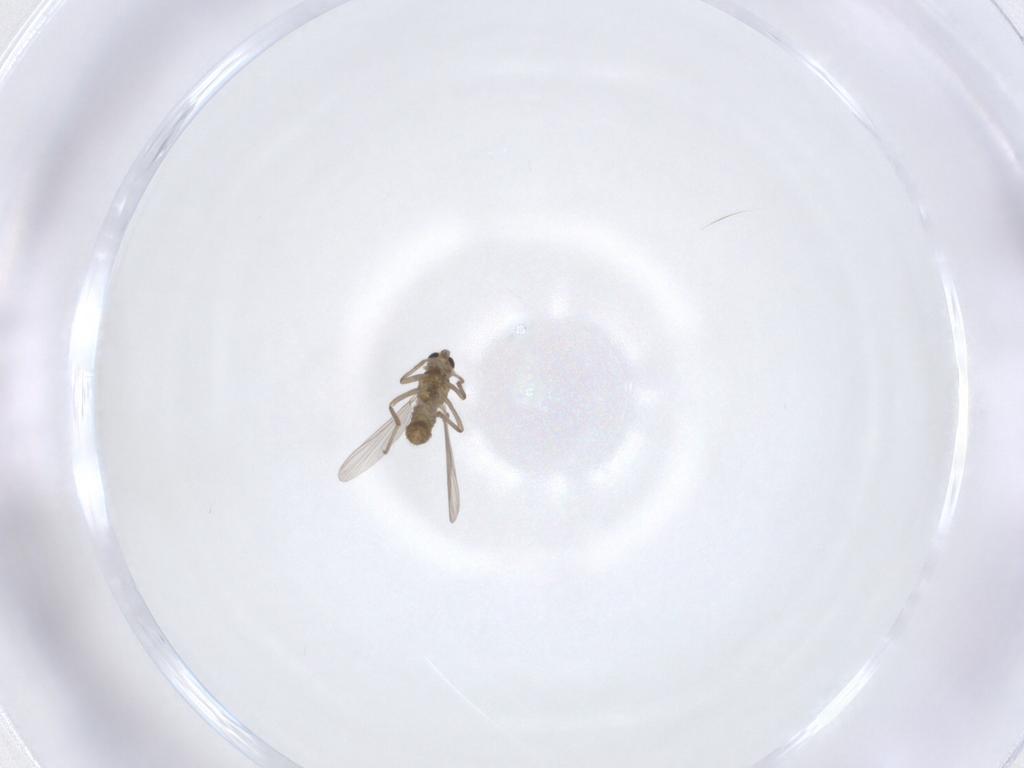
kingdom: Animalia
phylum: Arthropoda
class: Insecta
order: Diptera
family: Chironomidae
